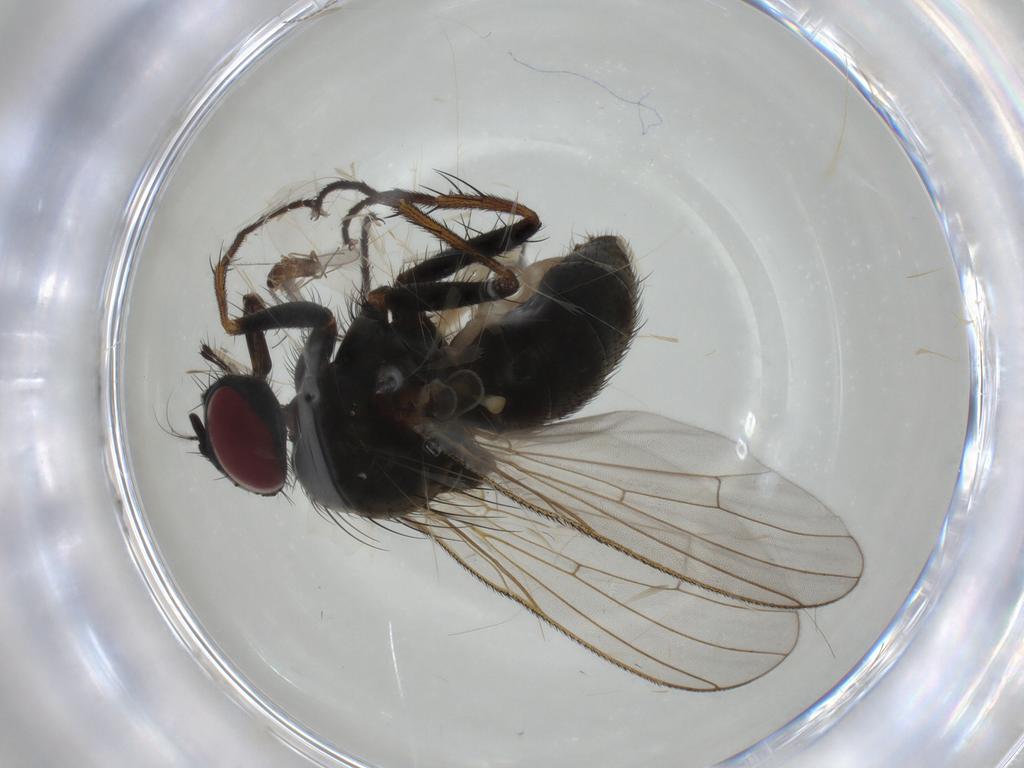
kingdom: Animalia
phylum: Arthropoda
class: Insecta
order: Diptera
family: Cecidomyiidae
